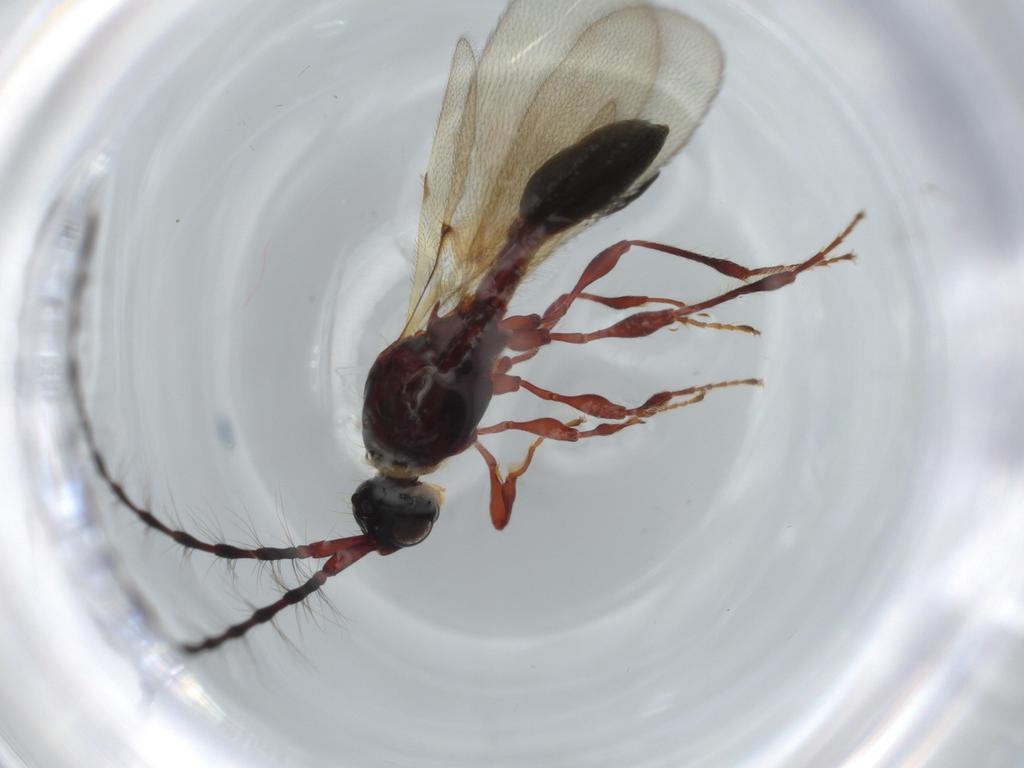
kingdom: Animalia
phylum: Arthropoda
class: Insecta
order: Hymenoptera
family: Diapriidae
